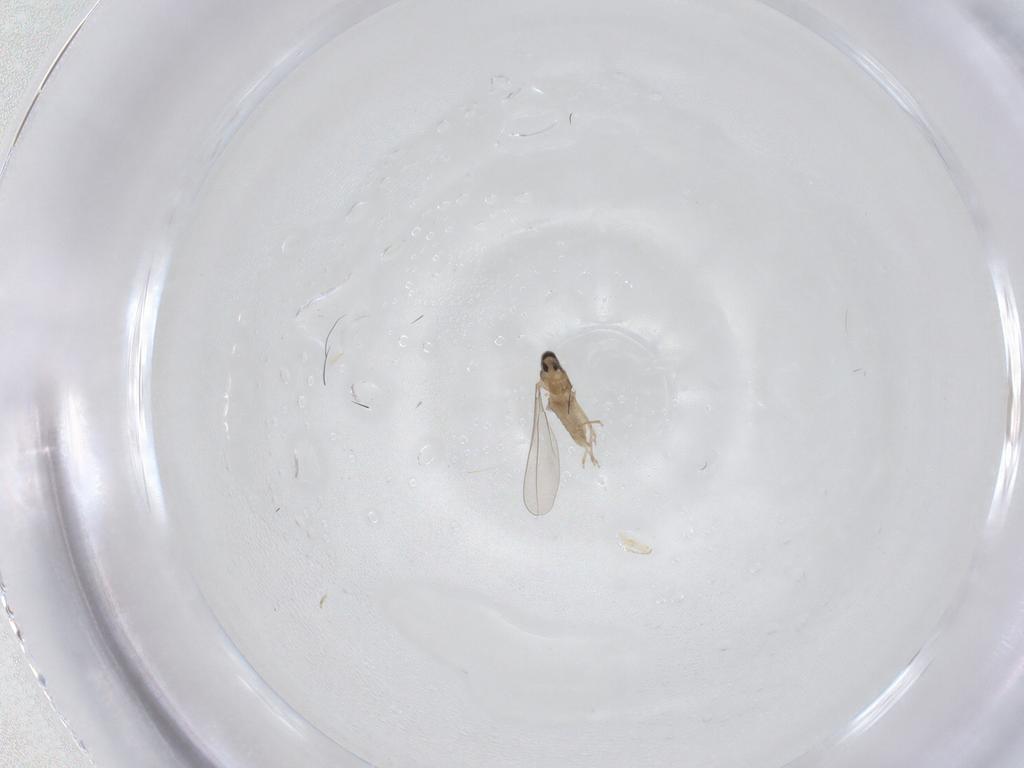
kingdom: Animalia
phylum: Arthropoda
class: Insecta
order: Diptera
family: Cecidomyiidae
